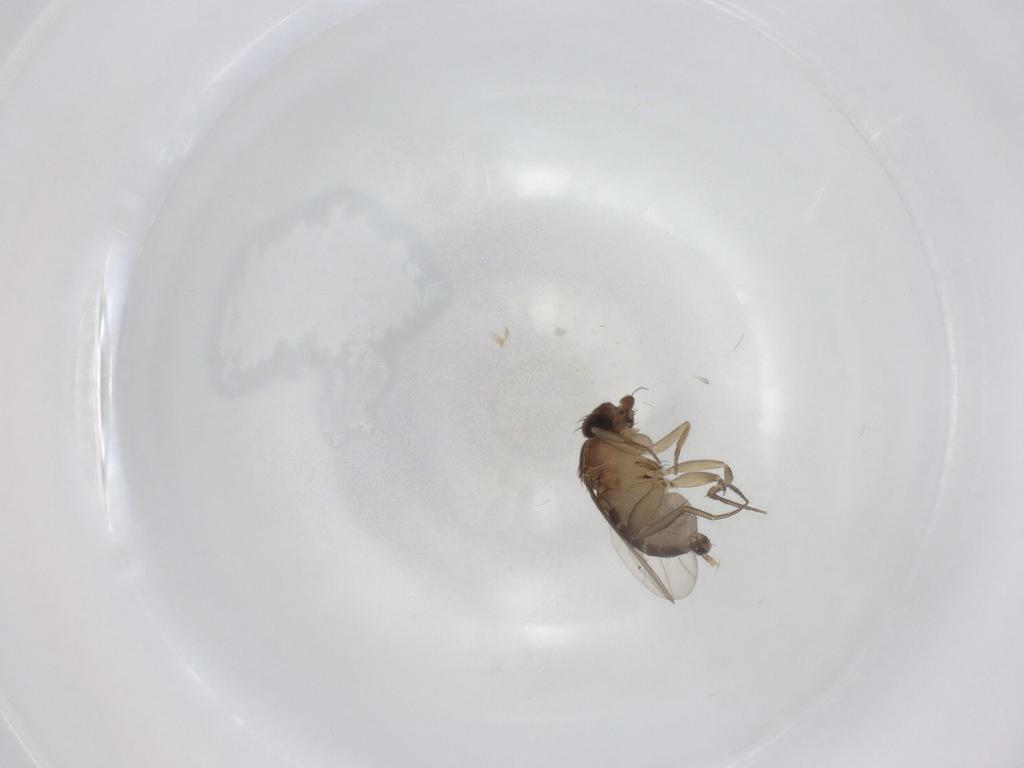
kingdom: Animalia
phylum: Arthropoda
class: Insecta
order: Diptera
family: Phoridae
